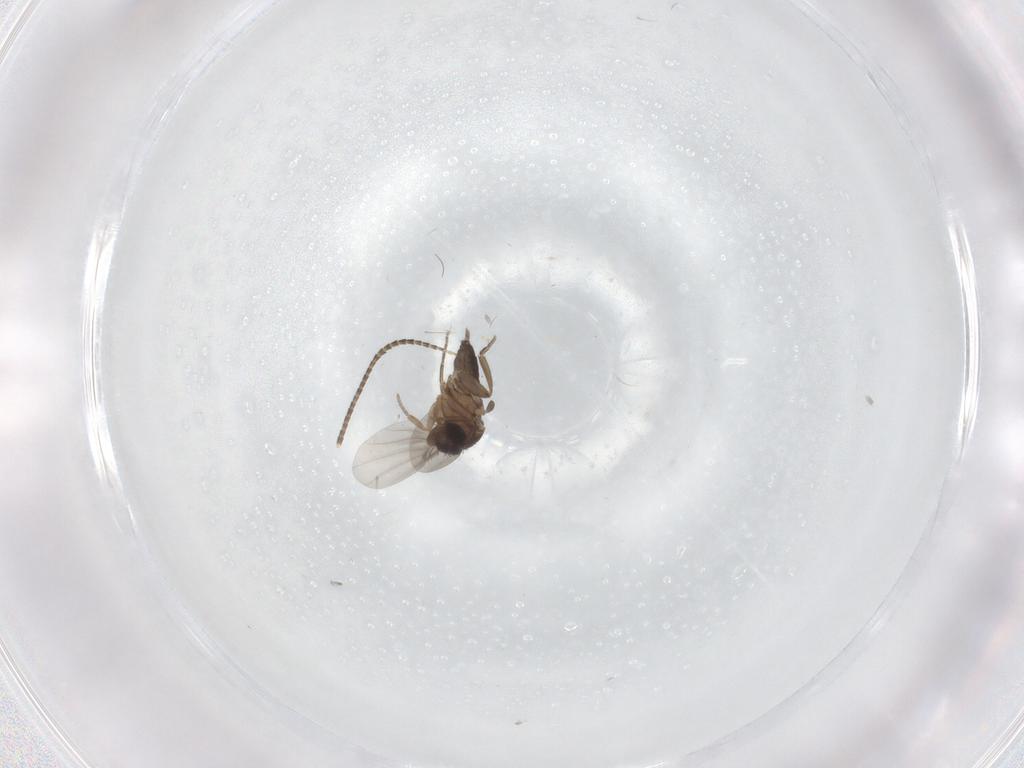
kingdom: Animalia
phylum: Arthropoda
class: Insecta
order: Diptera
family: Phoridae
